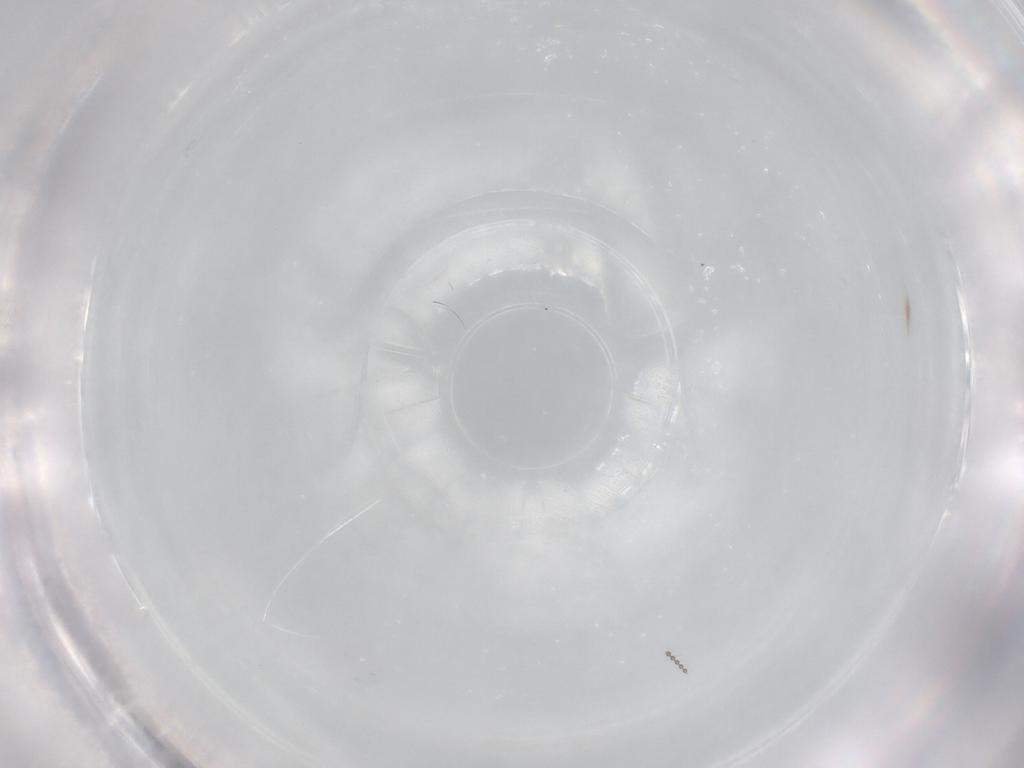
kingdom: Animalia
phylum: Arthropoda
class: Insecta
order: Diptera
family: Psychodidae
